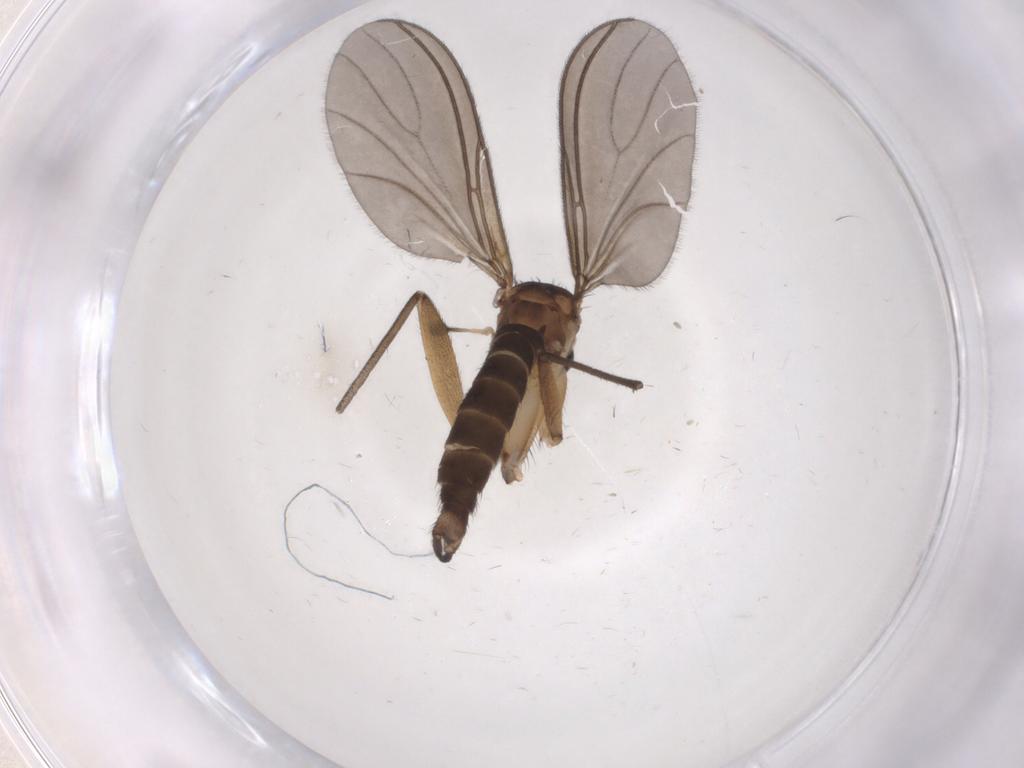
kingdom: Animalia
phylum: Arthropoda
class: Insecta
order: Diptera
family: Sciaridae
